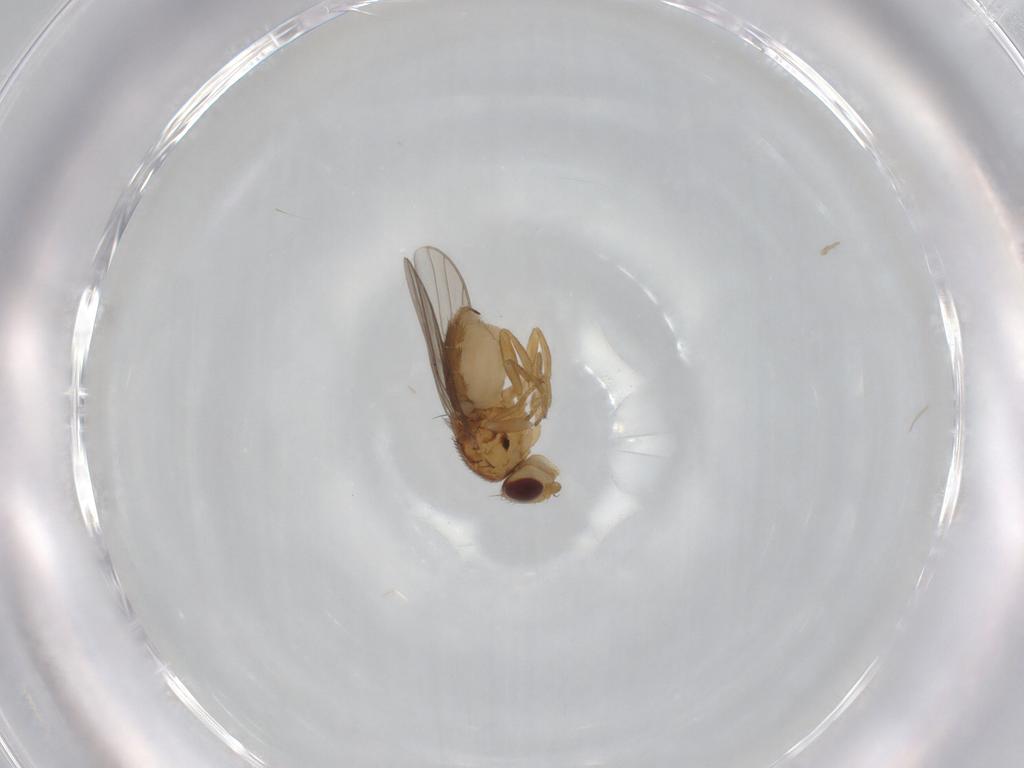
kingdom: Animalia
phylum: Arthropoda
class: Insecta
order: Diptera
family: Chloropidae
